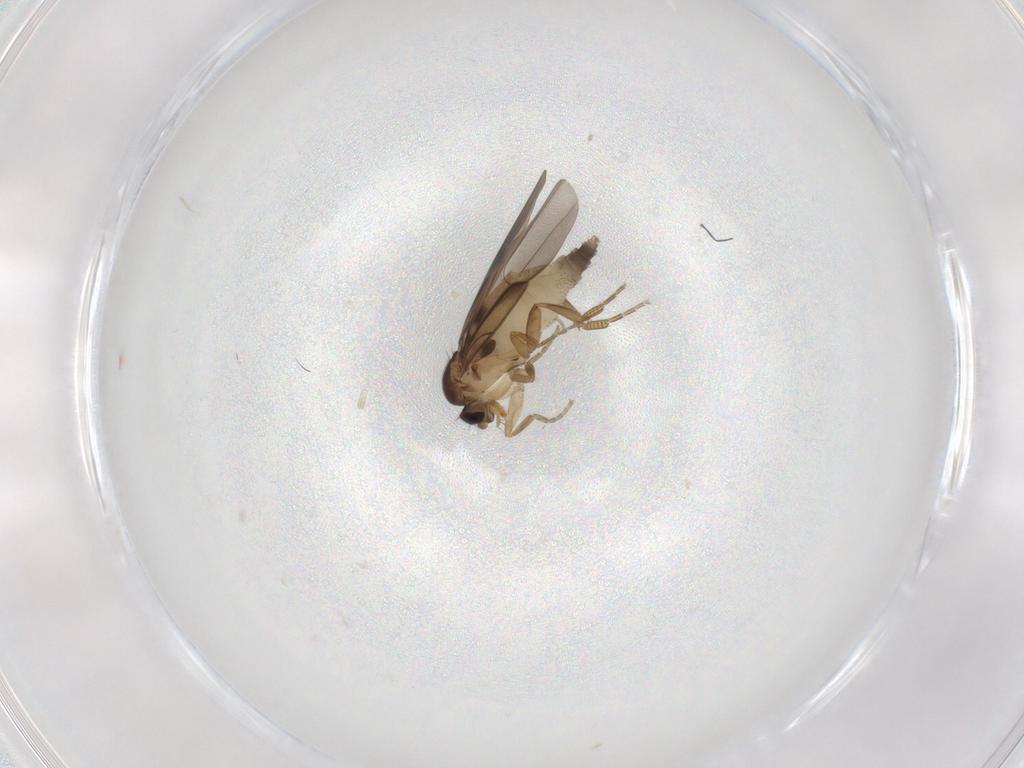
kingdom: Animalia
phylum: Arthropoda
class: Insecta
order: Diptera
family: Phoridae
